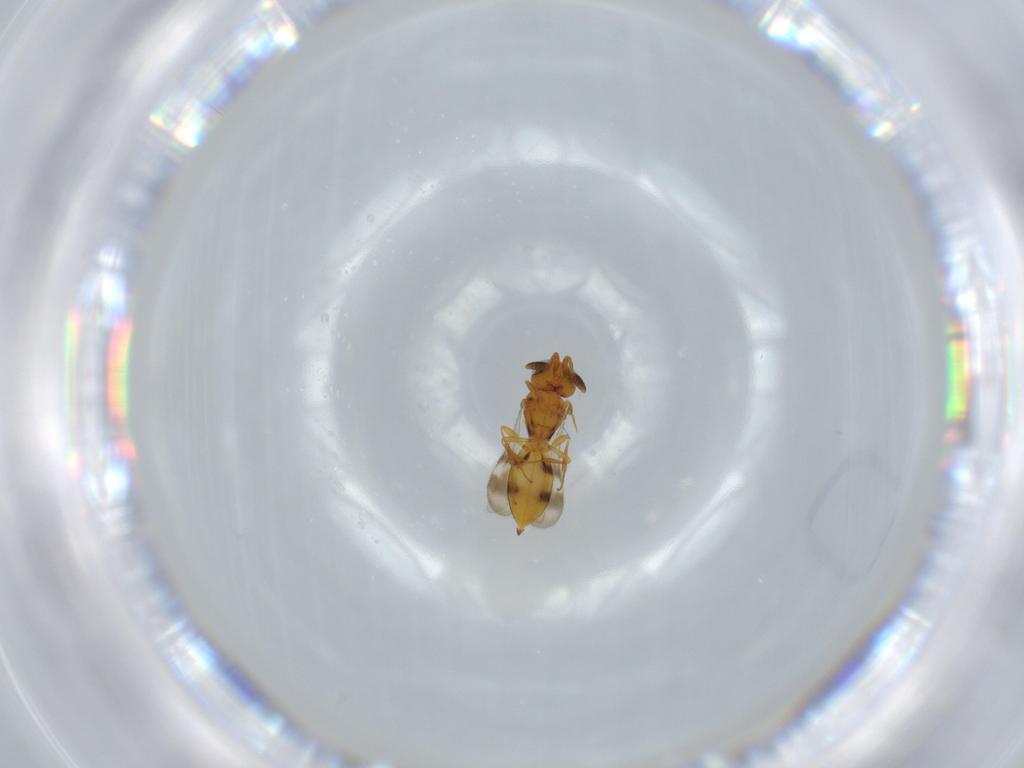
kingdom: Animalia
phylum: Arthropoda
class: Insecta
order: Hymenoptera
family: Scelionidae
